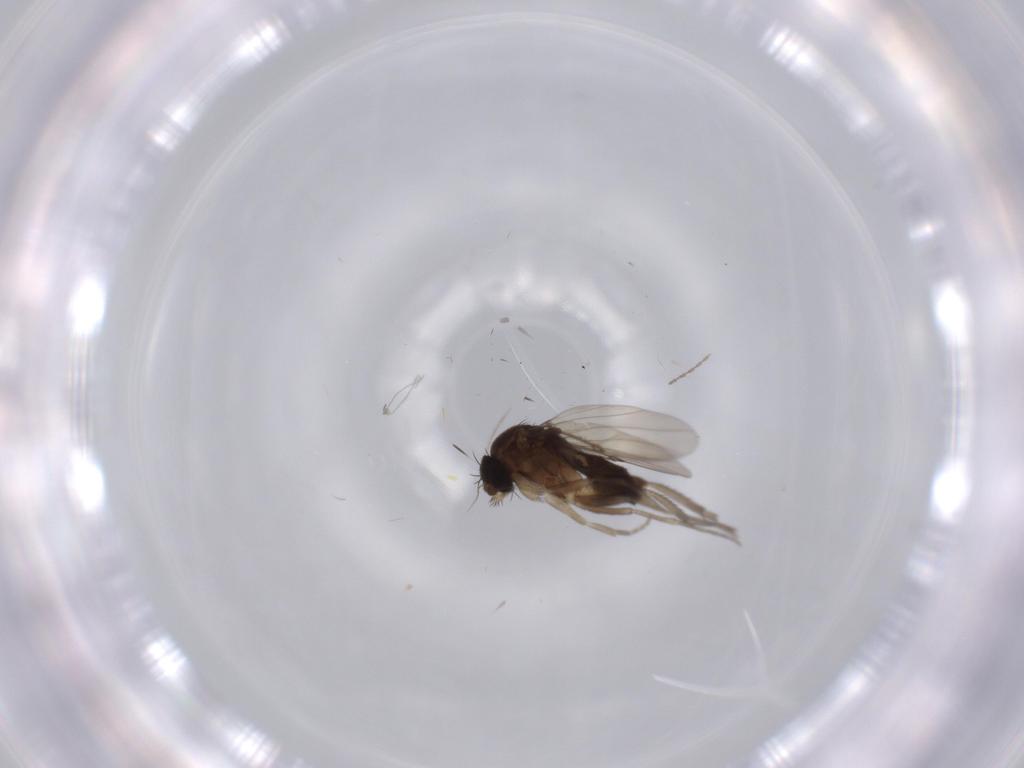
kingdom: Animalia
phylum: Arthropoda
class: Insecta
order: Diptera
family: Phoridae
